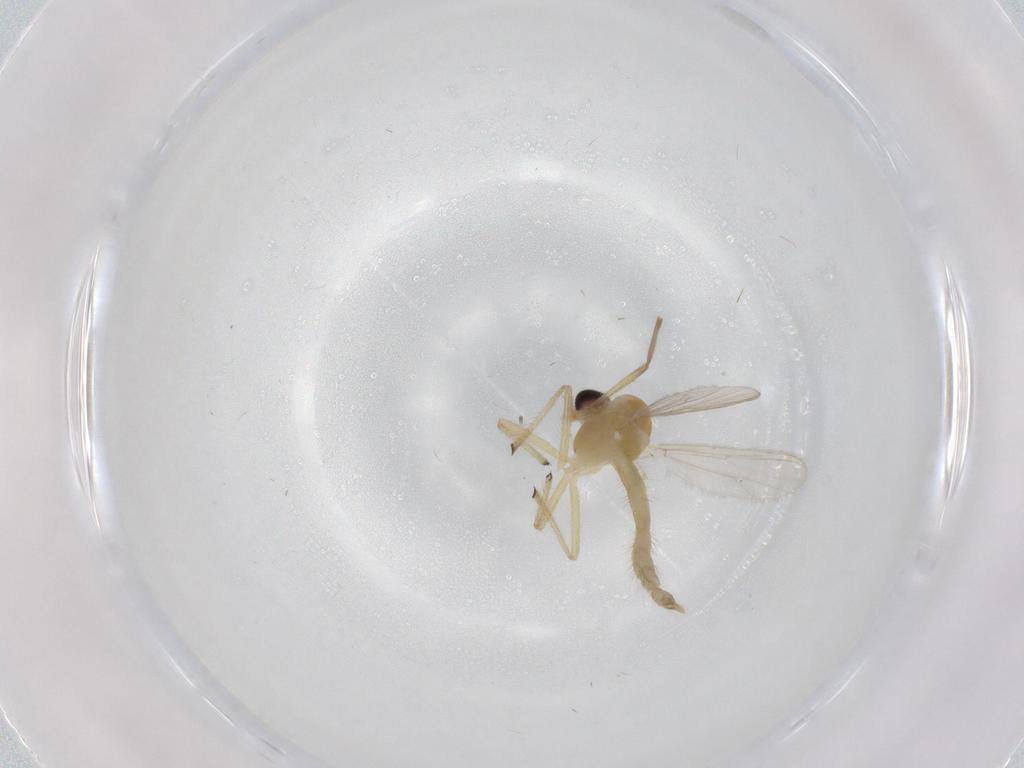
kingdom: Animalia
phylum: Arthropoda
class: Insecta
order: Diptera
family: Chironomidae
